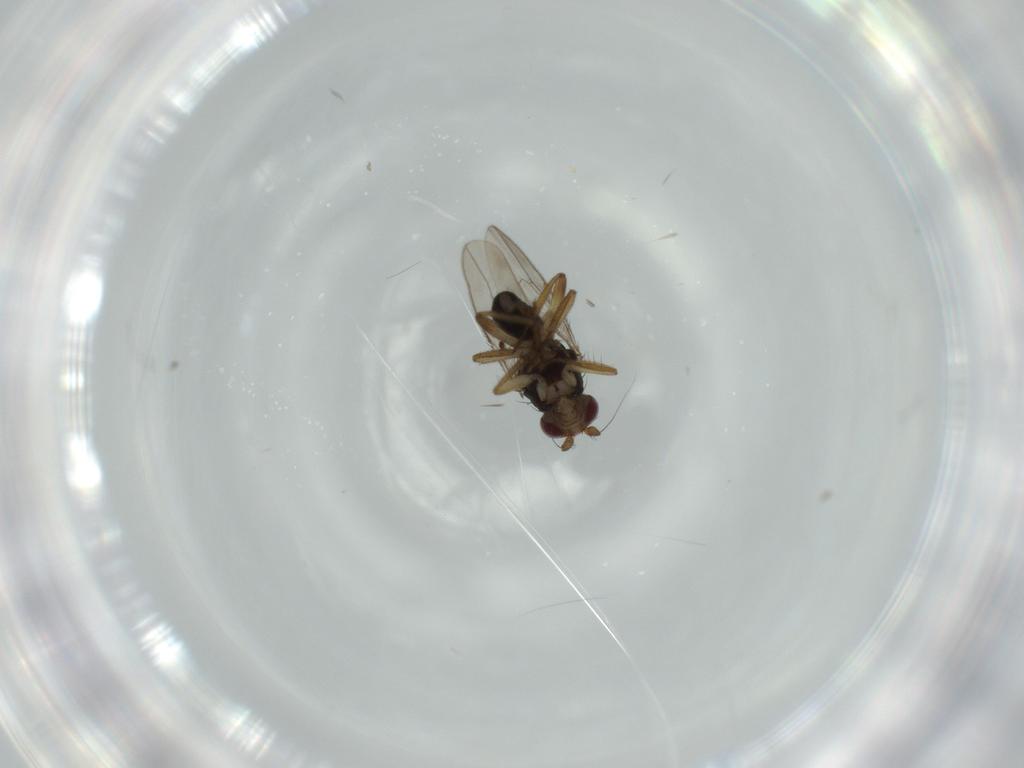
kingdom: Animalia
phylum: Arthropoda
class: Insecta
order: Diptera
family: Sphaeroceridae
